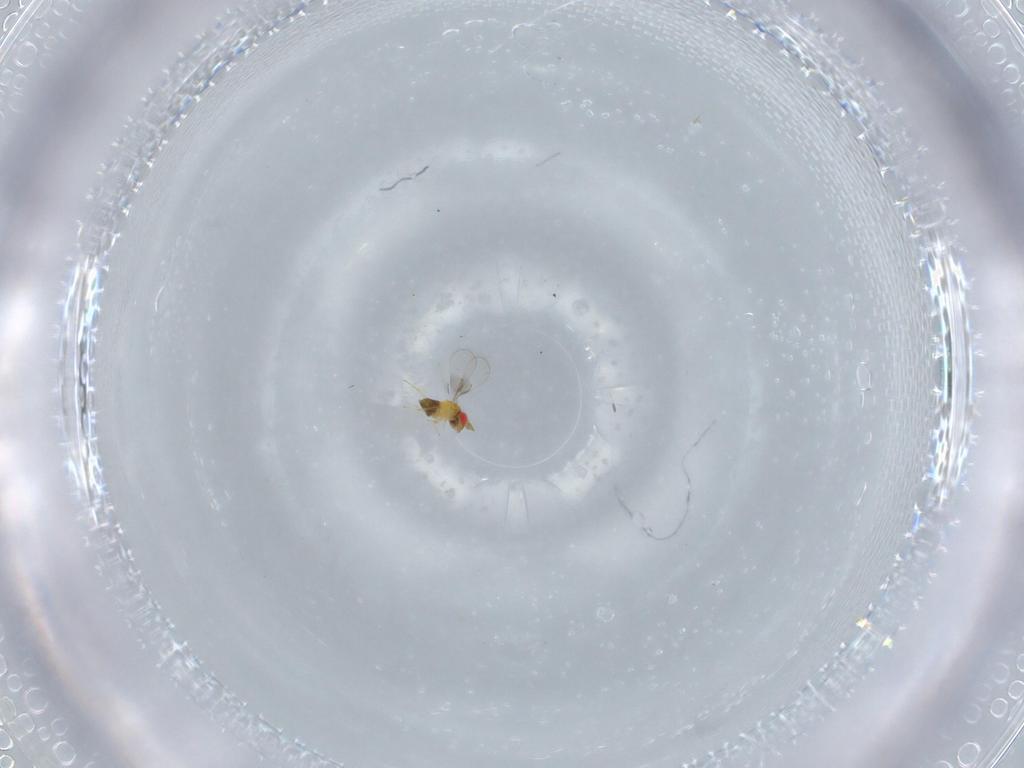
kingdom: Animalia
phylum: Arthropoda
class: Insecta
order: Hymenoptera
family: Trichogrammatidae
